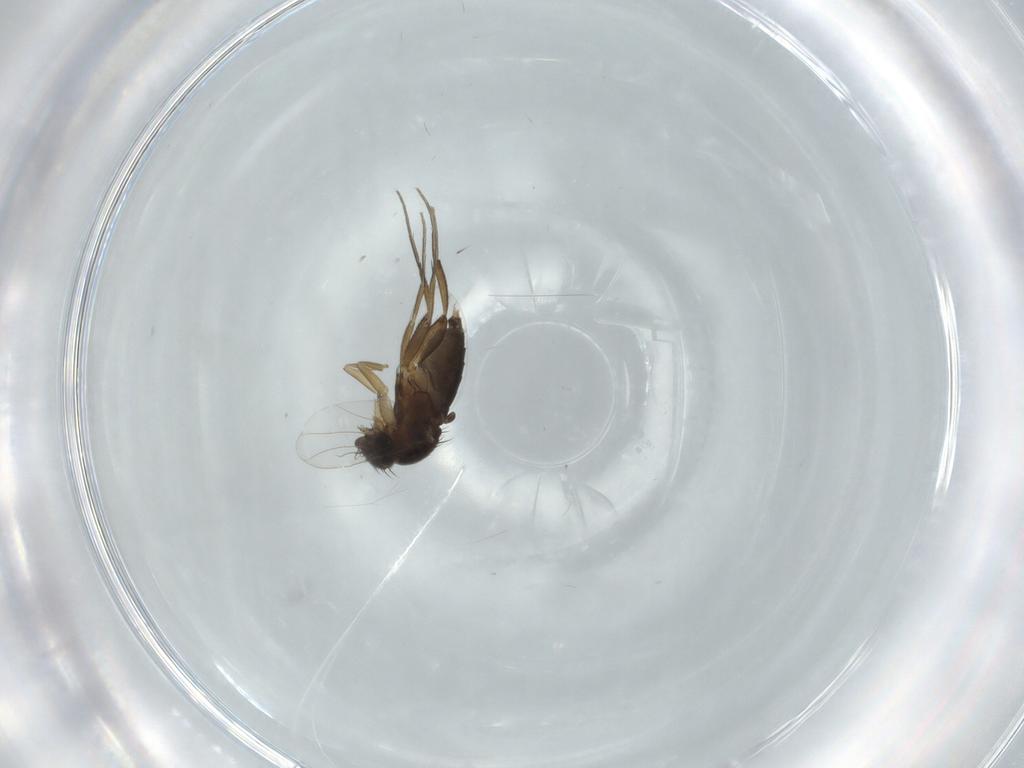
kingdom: Animalia
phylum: Arthropoda
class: Insecta
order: Diptera
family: Phoridae
